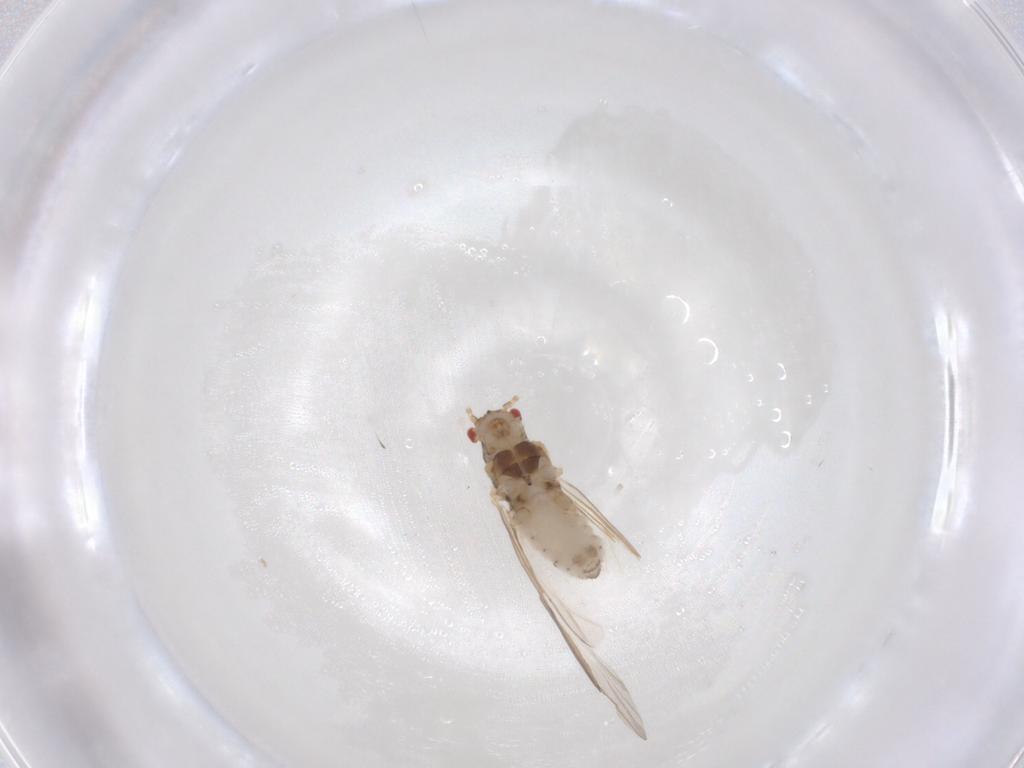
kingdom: Animalia
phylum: Arthropoda
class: Insecta
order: Hemiptera
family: Aphididae
